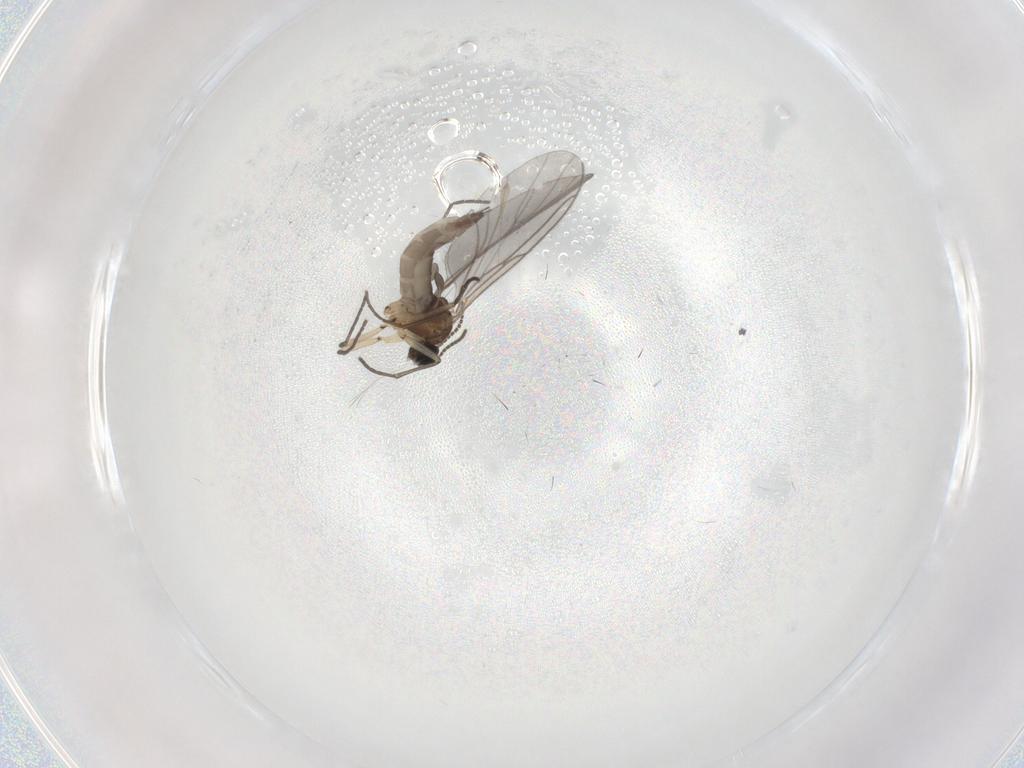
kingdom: Animalia
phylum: Arthropoda
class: Insecta
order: Diptera
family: Sciaridae
